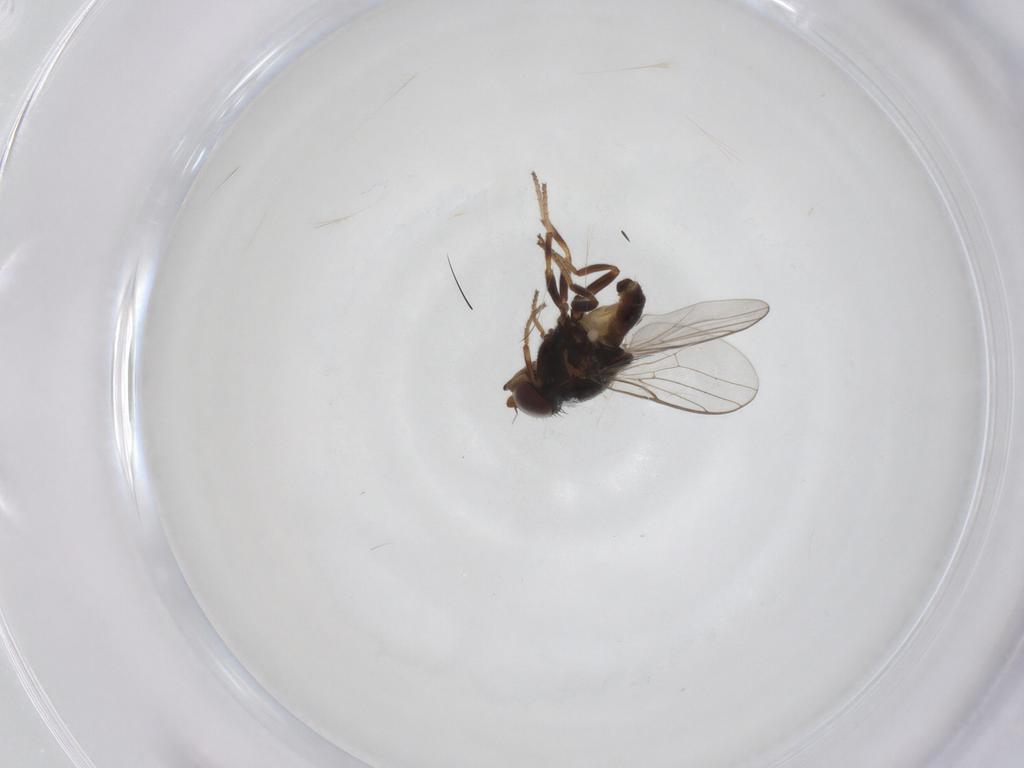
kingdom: Animalia
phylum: Arthropoda
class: Insecta
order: Diptera
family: Chloropidae
